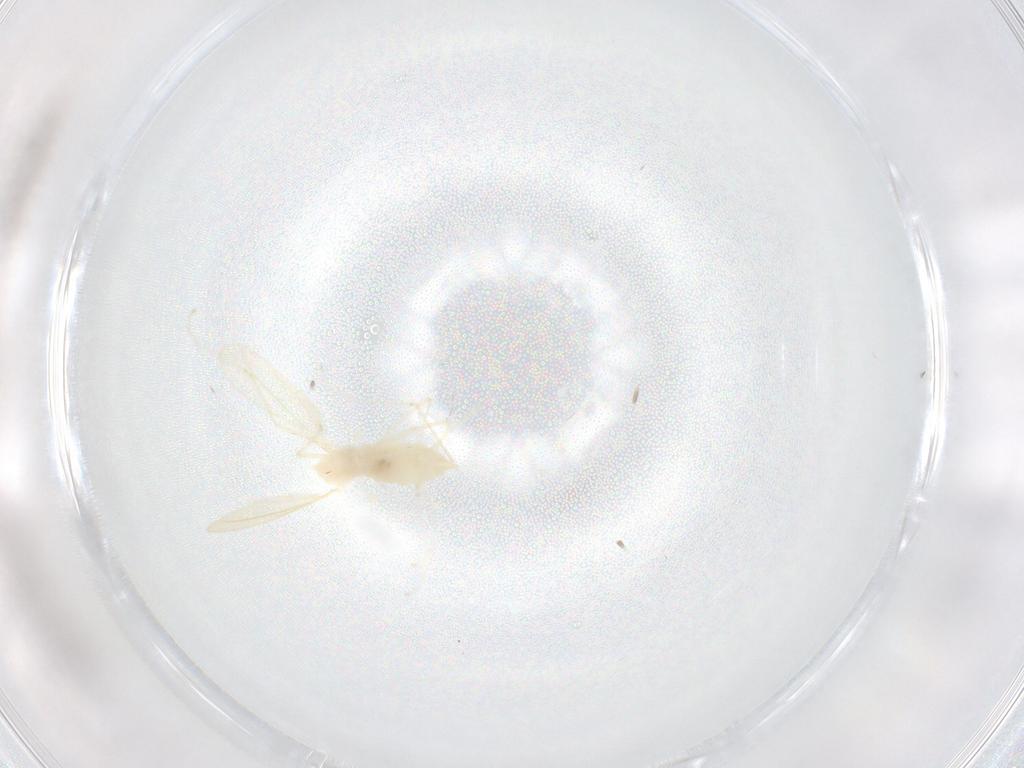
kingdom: Animalia
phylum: Arthropoda
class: Insecta
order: Diptera
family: Cecidomyiidae
